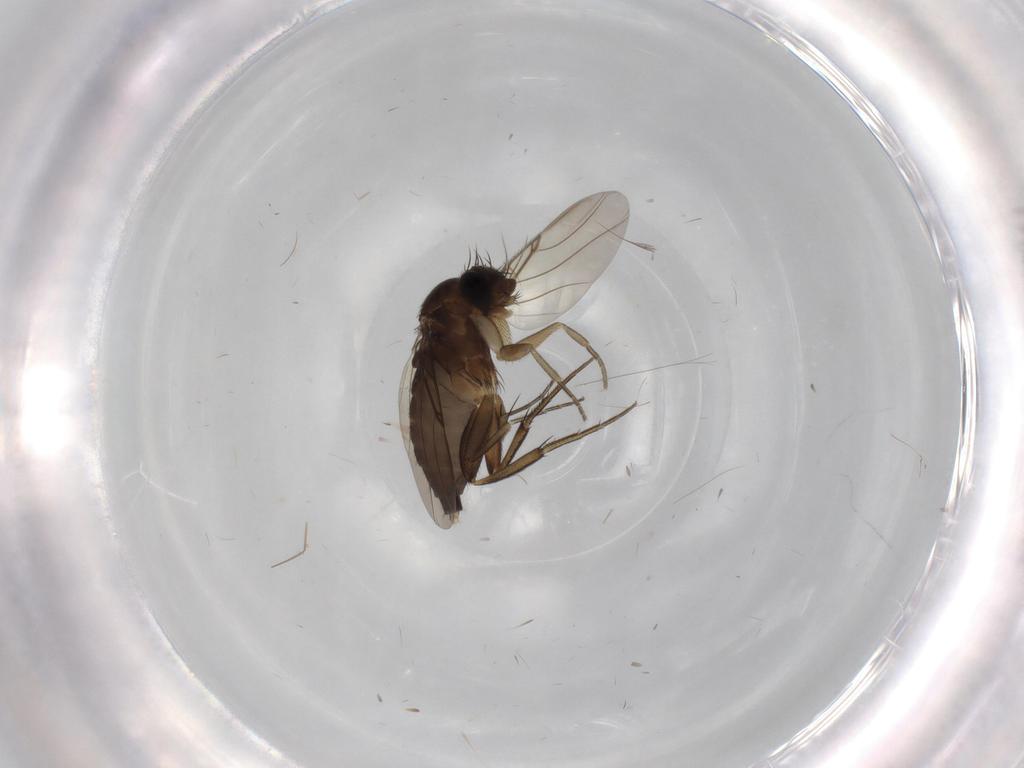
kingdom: Animalia
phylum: Arthropoda
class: Insecta
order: Diptera
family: Phoridae
